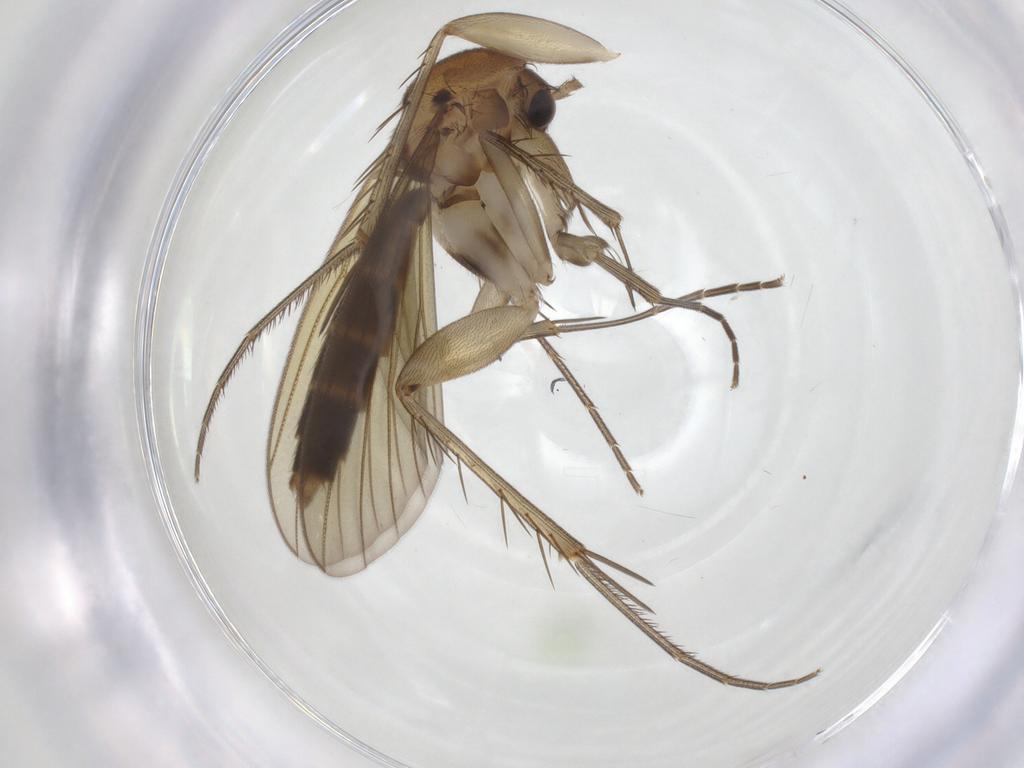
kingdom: Animalia
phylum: Arthropoda
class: Insecta
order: Diptera
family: Mycetophilidae
